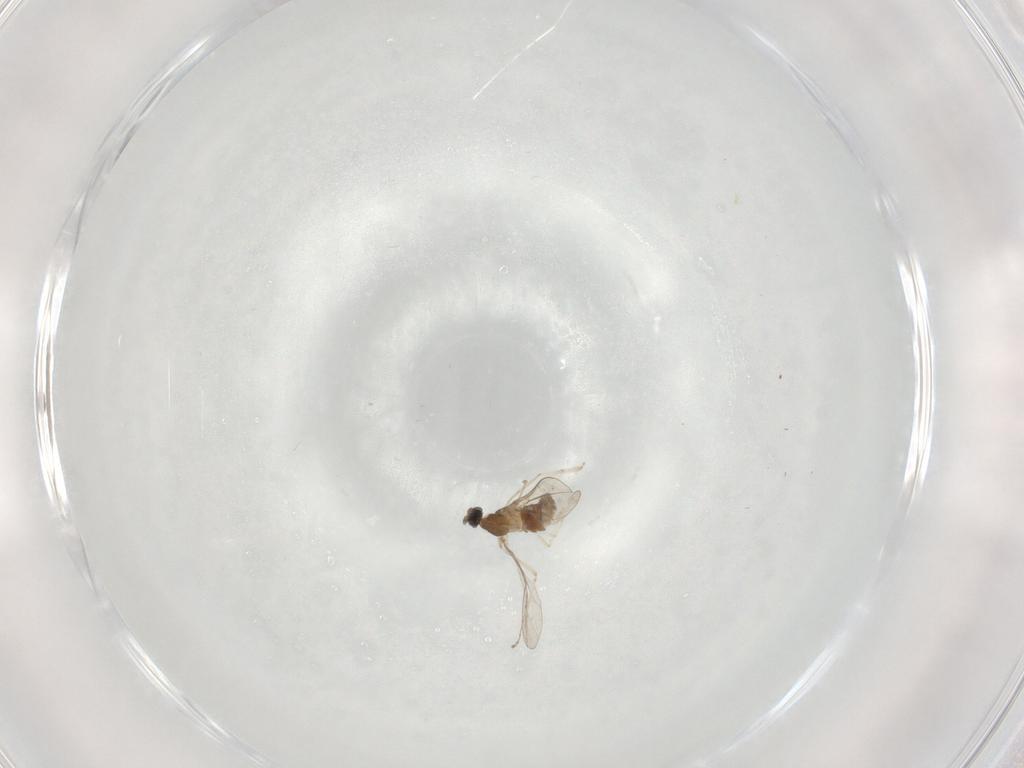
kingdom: Animalia
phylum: Arthropoda
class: Insecta
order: Diptera
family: Cecidomyiidae
